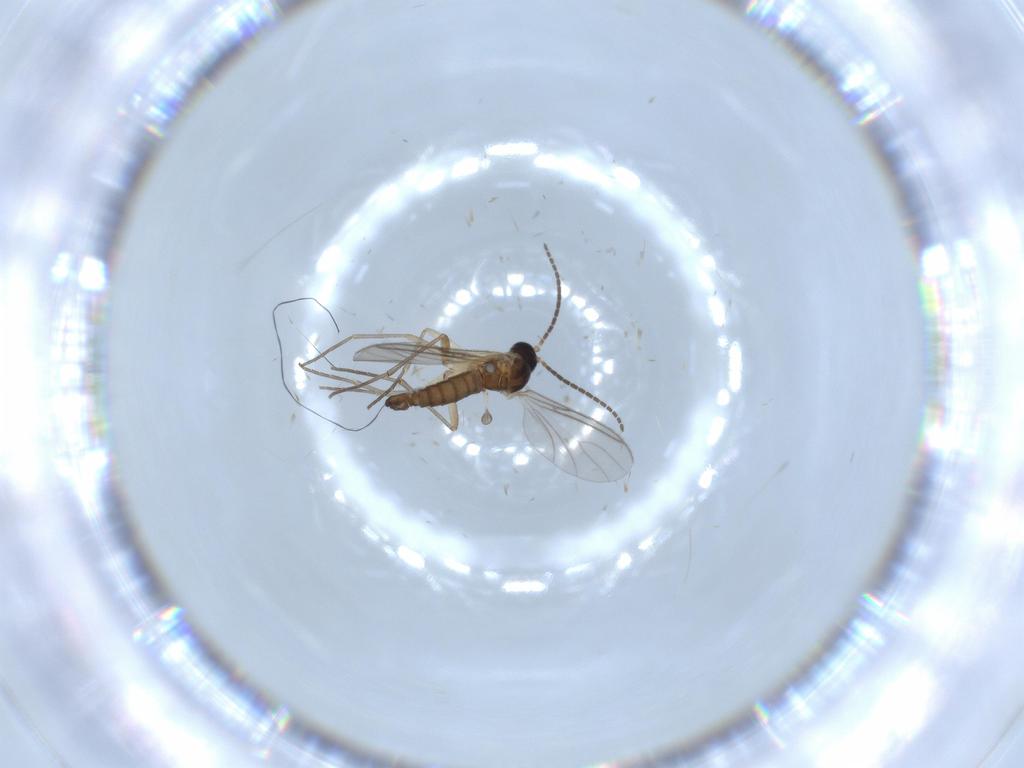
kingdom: Animalia
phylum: Arthropoda
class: Insecta
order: Diptera
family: Sciaridae
